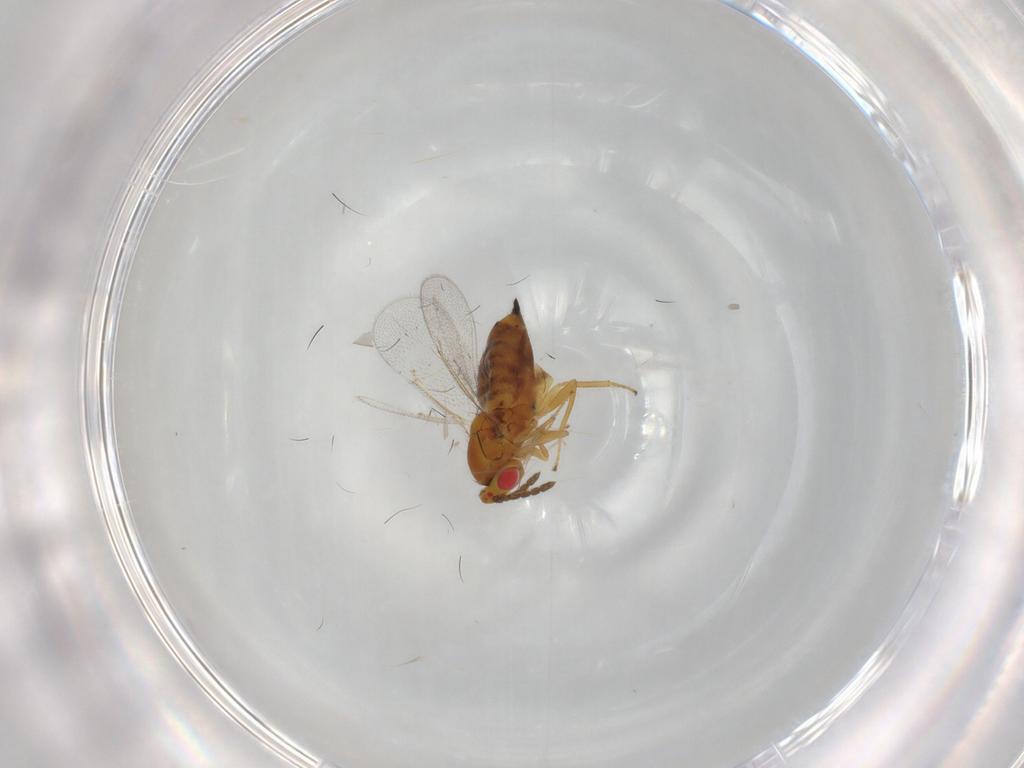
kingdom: Animalia
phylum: Arthropoda
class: Insecta
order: Hymenoptera
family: Eulophidae
